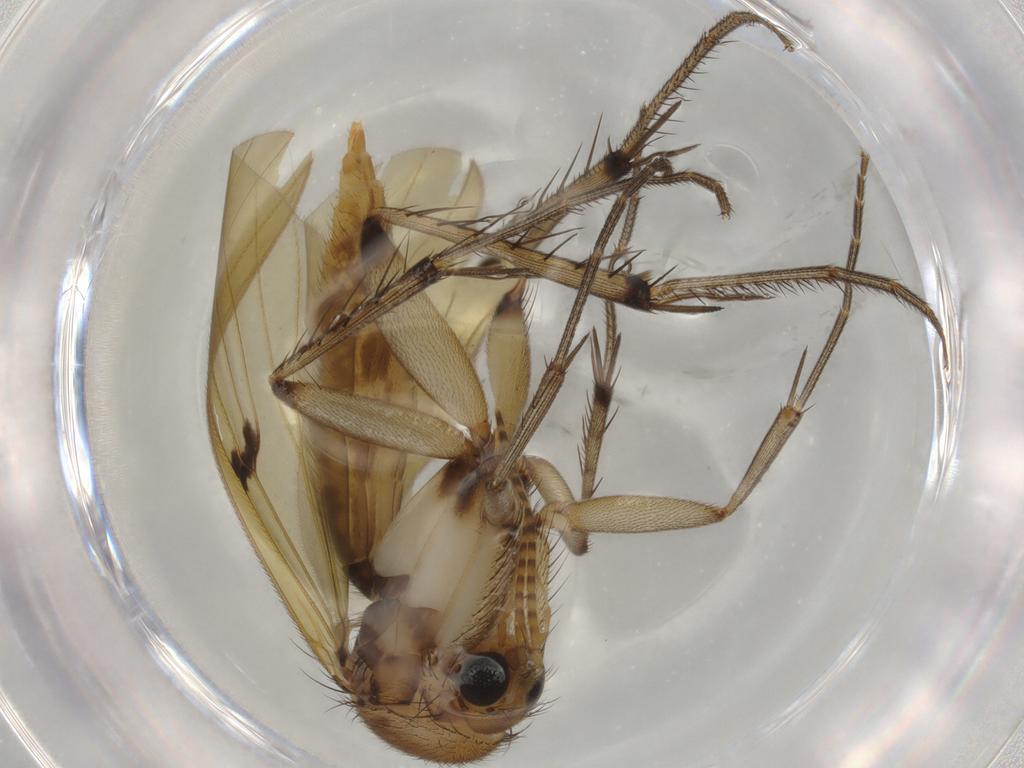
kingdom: Animalia
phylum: Arthropoda
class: Insecta
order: Diptera
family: Mycetophilidae
